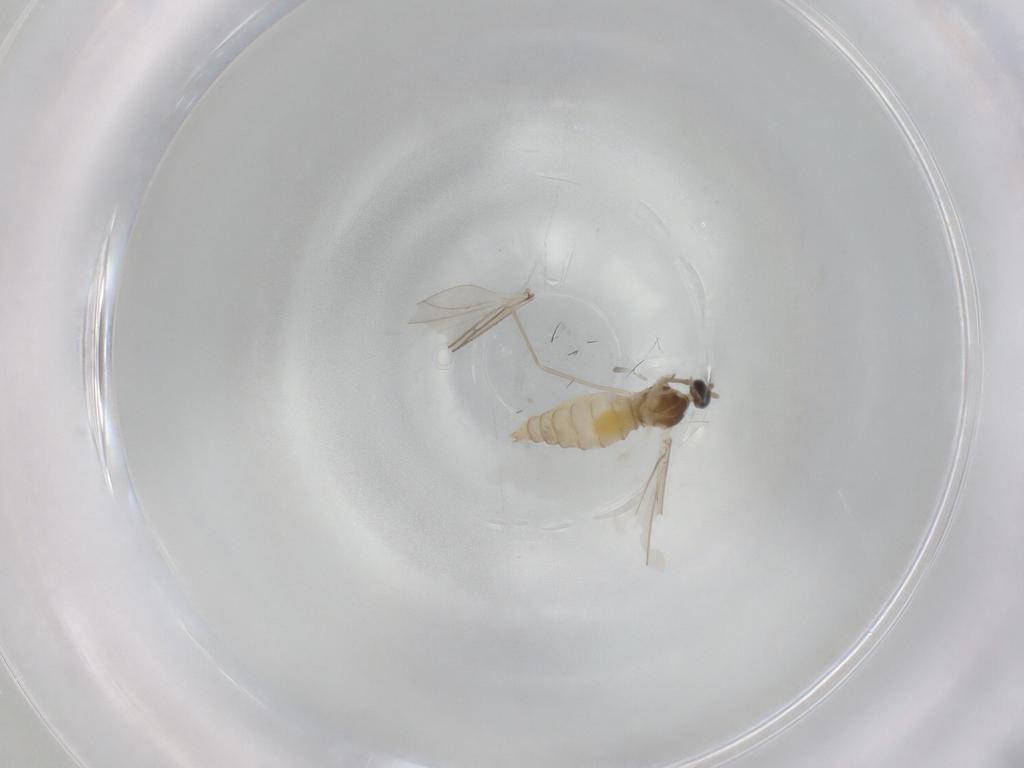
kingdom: Animalia
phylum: Arthropoda
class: Insecta
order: Diptera
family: Cecidomyiidae
